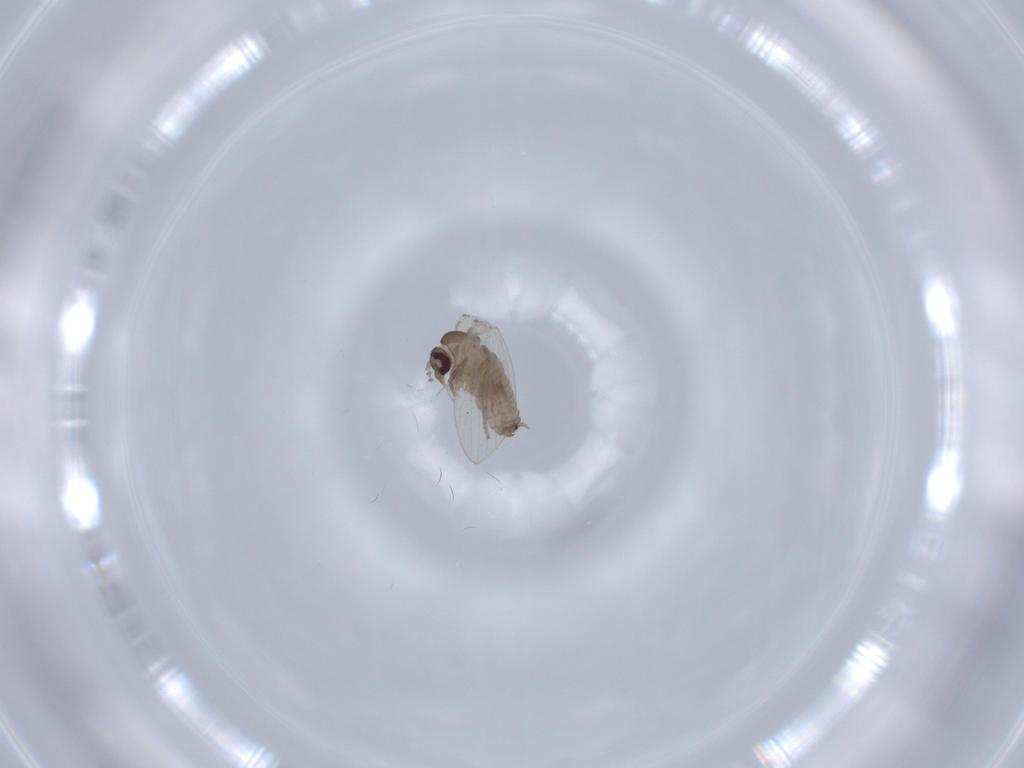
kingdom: Animalia
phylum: Arthropoda
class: Insecta
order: Diptera
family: Psychodidae
